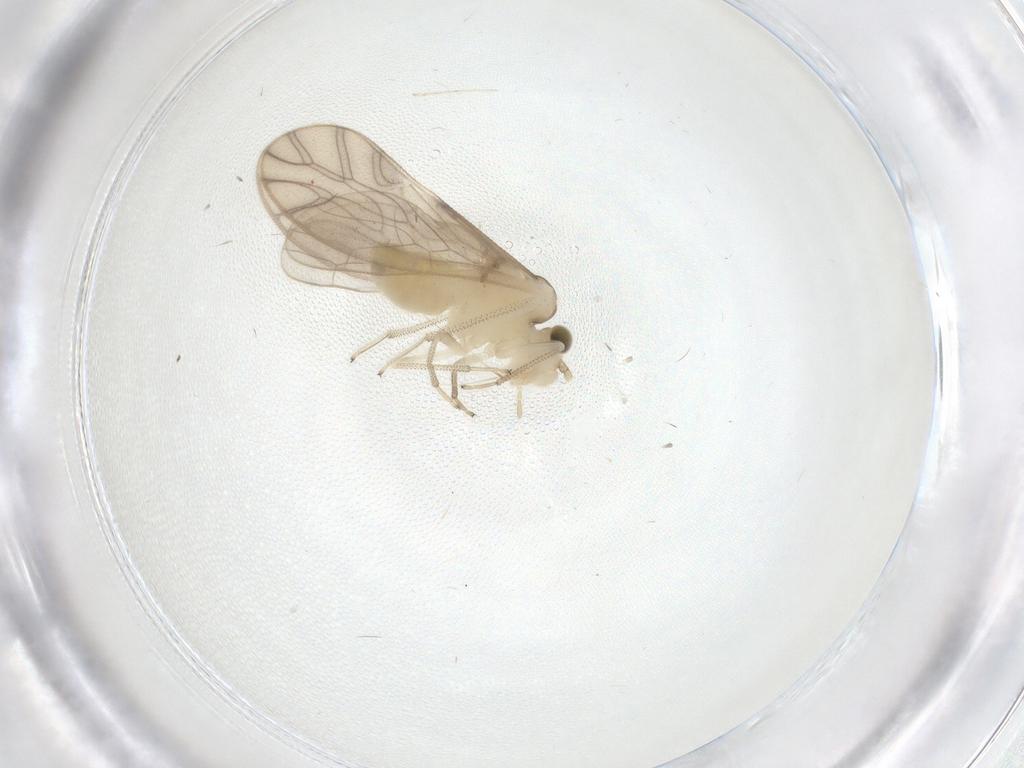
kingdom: Animalia
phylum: Arthropoda
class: Insecta
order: Psocodea
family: Caeciliusidae
